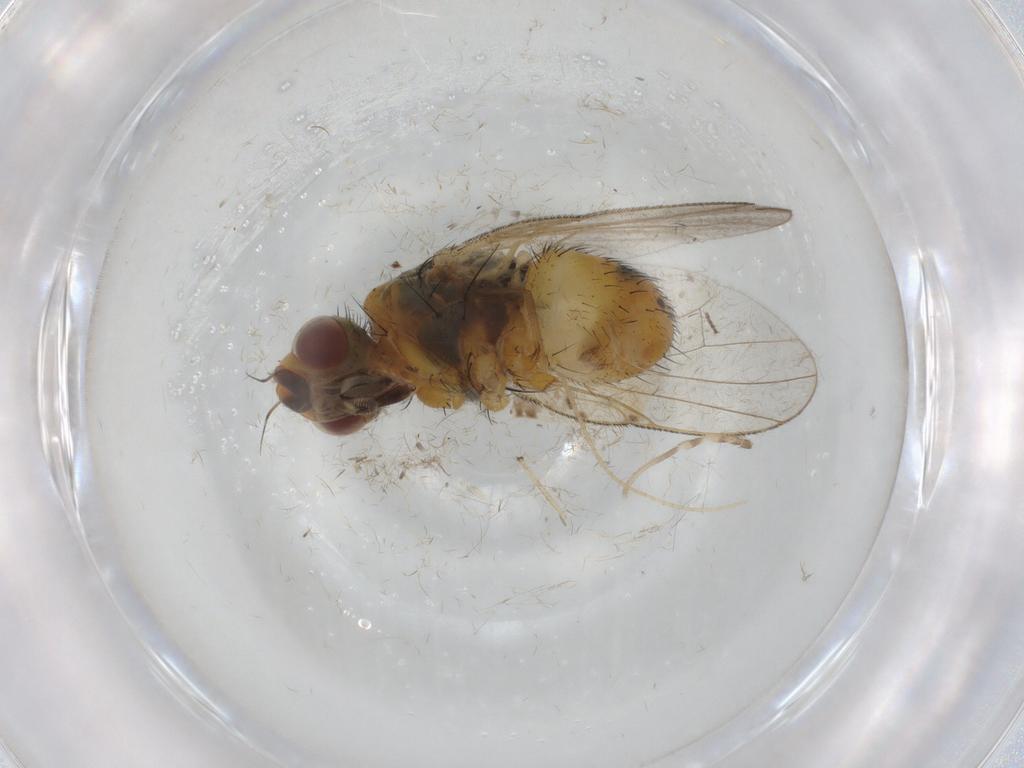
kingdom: Animalia
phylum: Arthropoda
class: Insecta
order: Diptera
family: Muscidae
